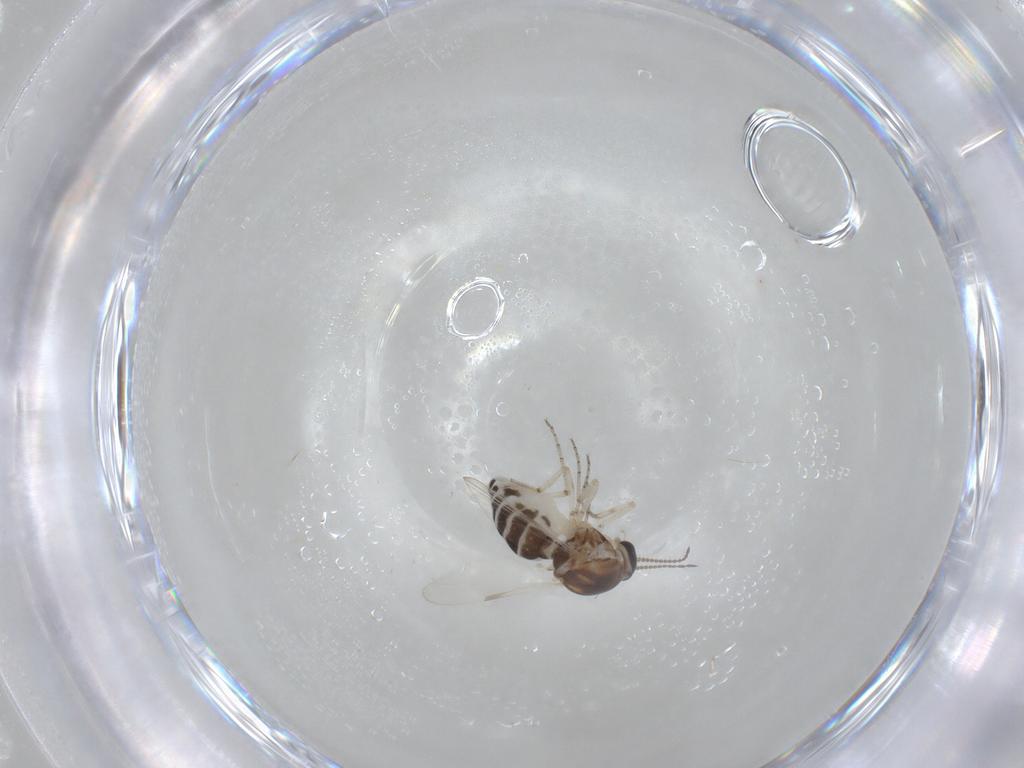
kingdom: Animalia
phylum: Arthropoda
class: Insecta
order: Diptera
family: Ceratopogonidae
